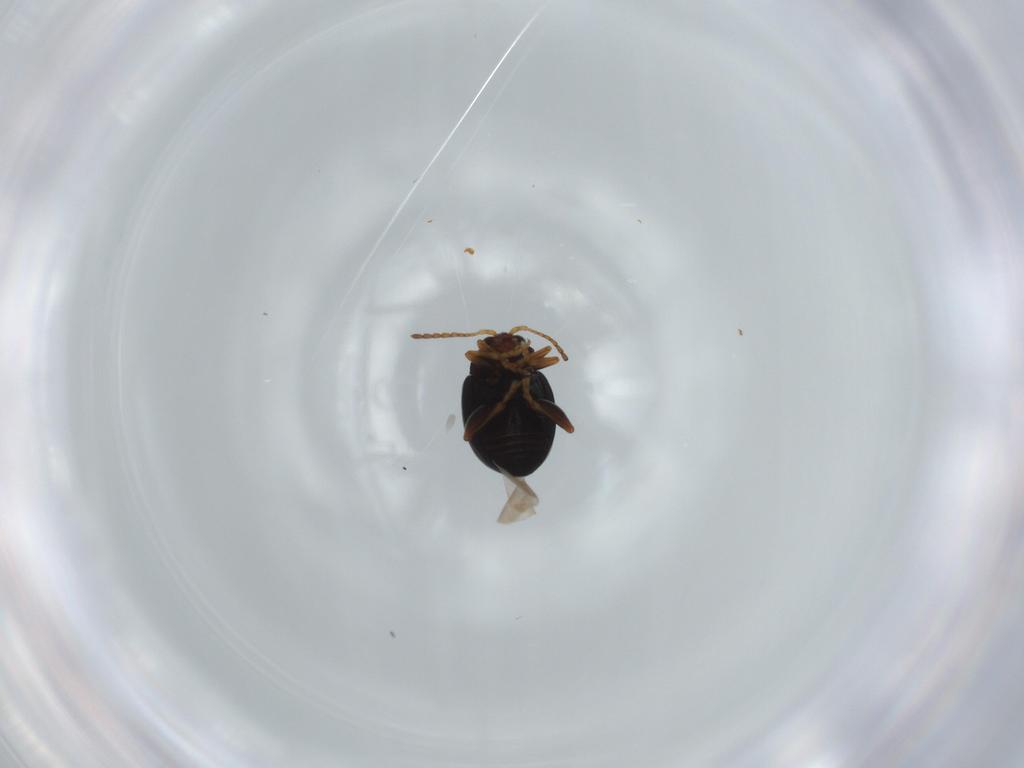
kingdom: Animalia
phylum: Arthropoda
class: Insecta
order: Coleoptera
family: Chrysomelidae
